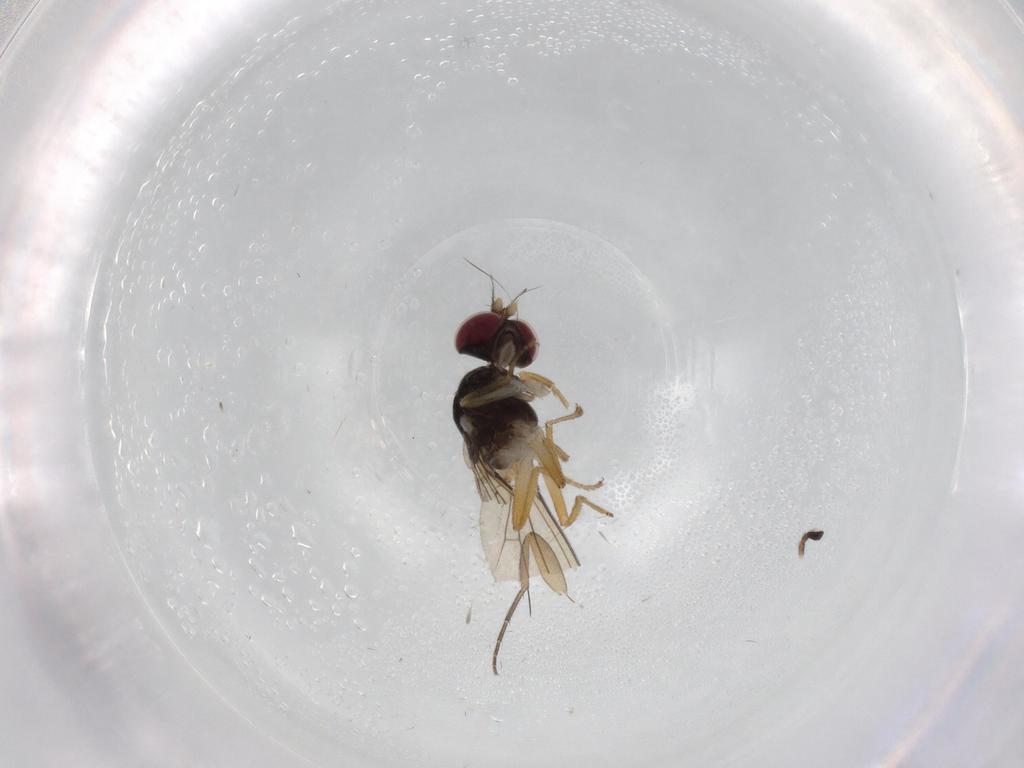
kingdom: Animalia
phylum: Arthropoda
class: Insecta
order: Diptera
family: Anthomyzidae
